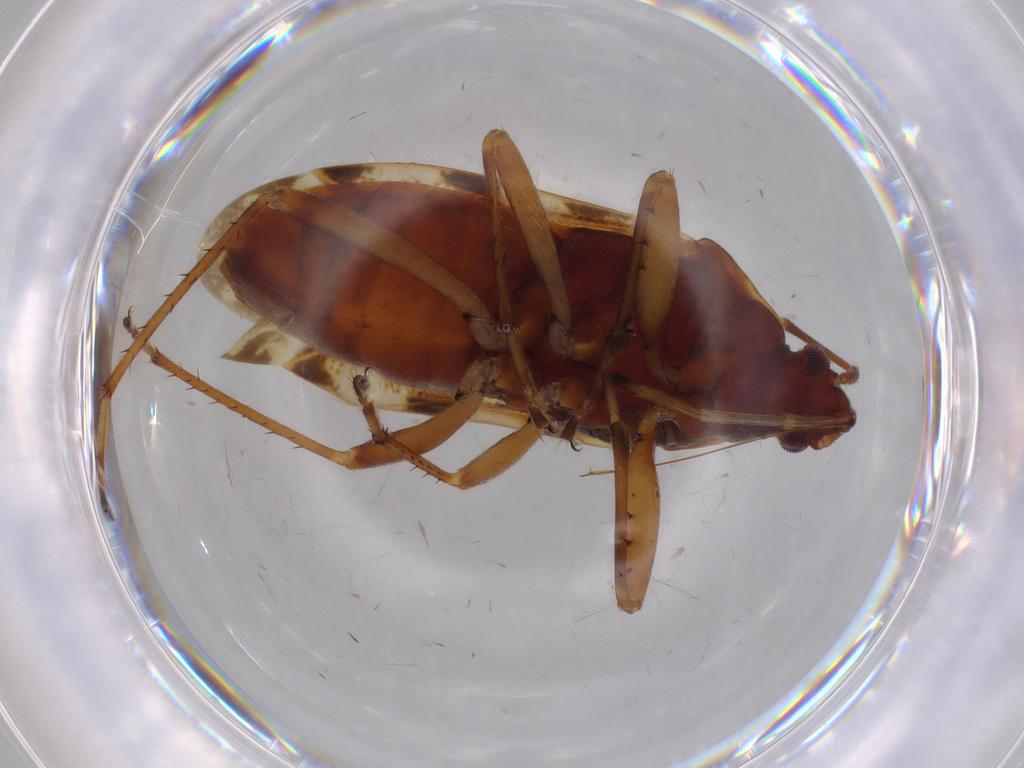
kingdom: Animalia
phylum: Arthropoda
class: Insecta
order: Hemiptera
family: Rhyparochromidae
